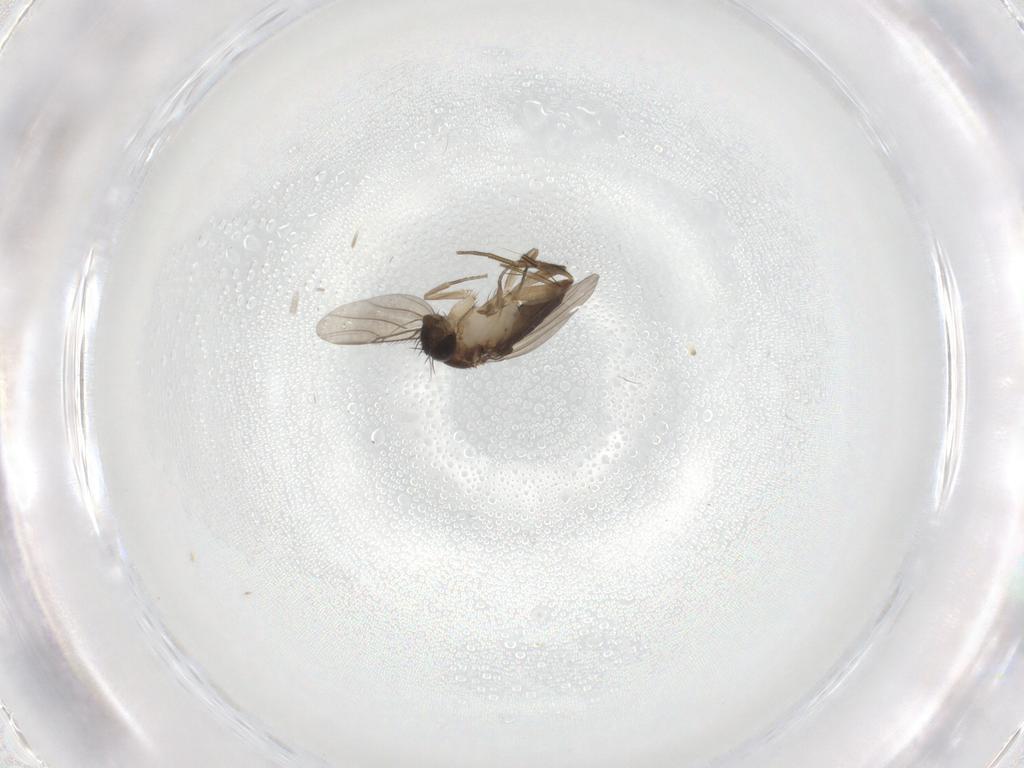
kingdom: Animalia
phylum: Arthropoda
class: Insecta
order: Diptera
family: Phoridae
